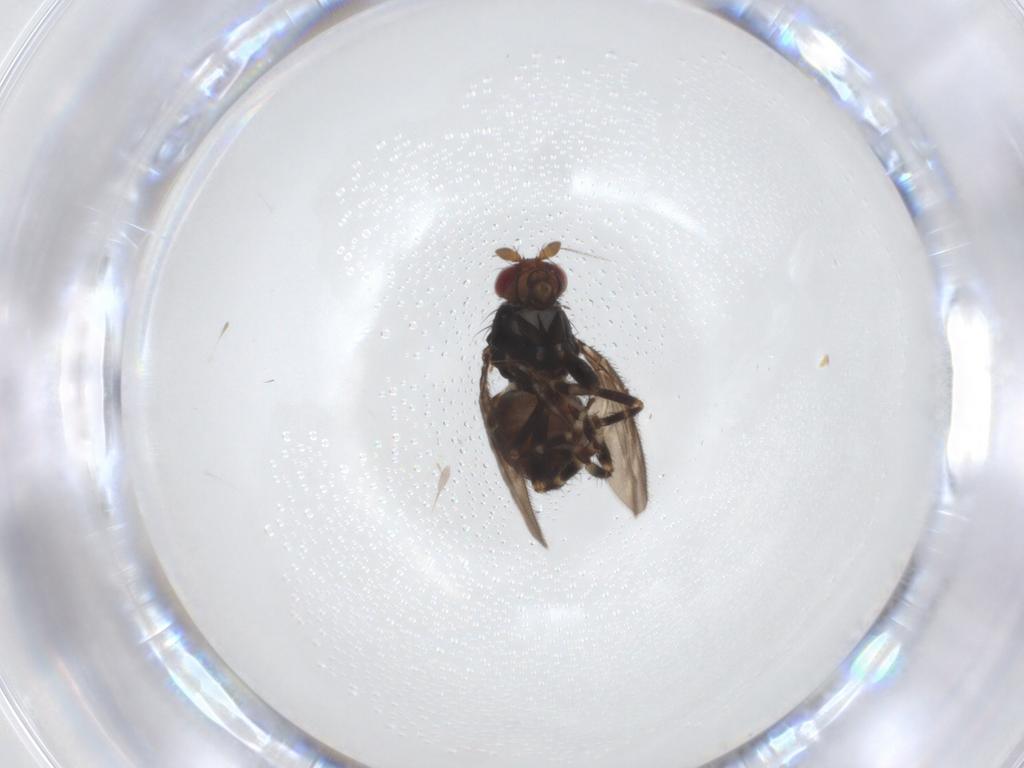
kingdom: Animalia
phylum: Arthropoda
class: Insecta
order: Diptera
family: Sphaeroceridae
